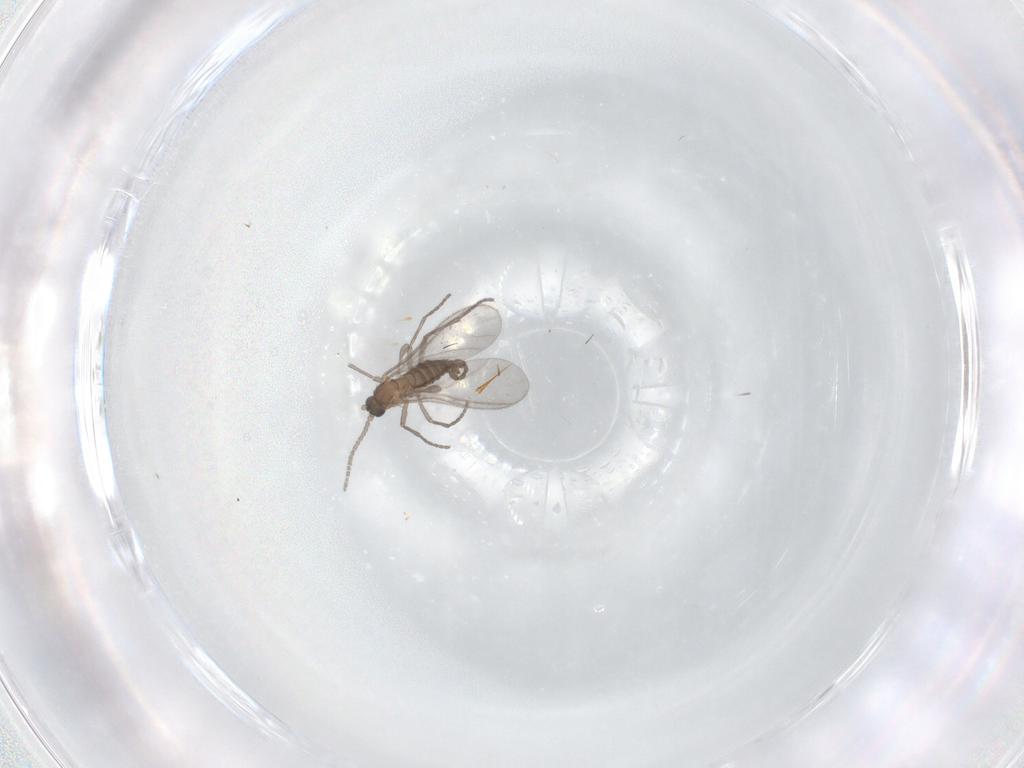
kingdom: Animalia
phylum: Arthropoda
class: Insecta
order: Diptera
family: Sciaridae
